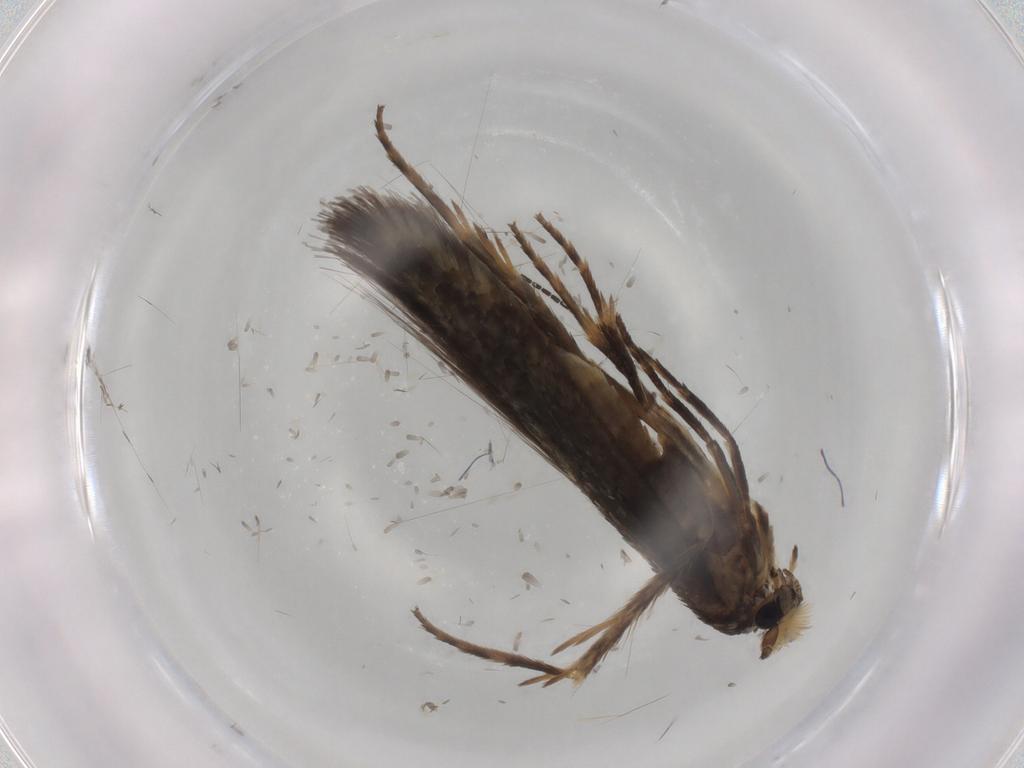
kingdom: Animalia
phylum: Arthropoda
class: Insecta
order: Lepidoptera
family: Nepticulidae
